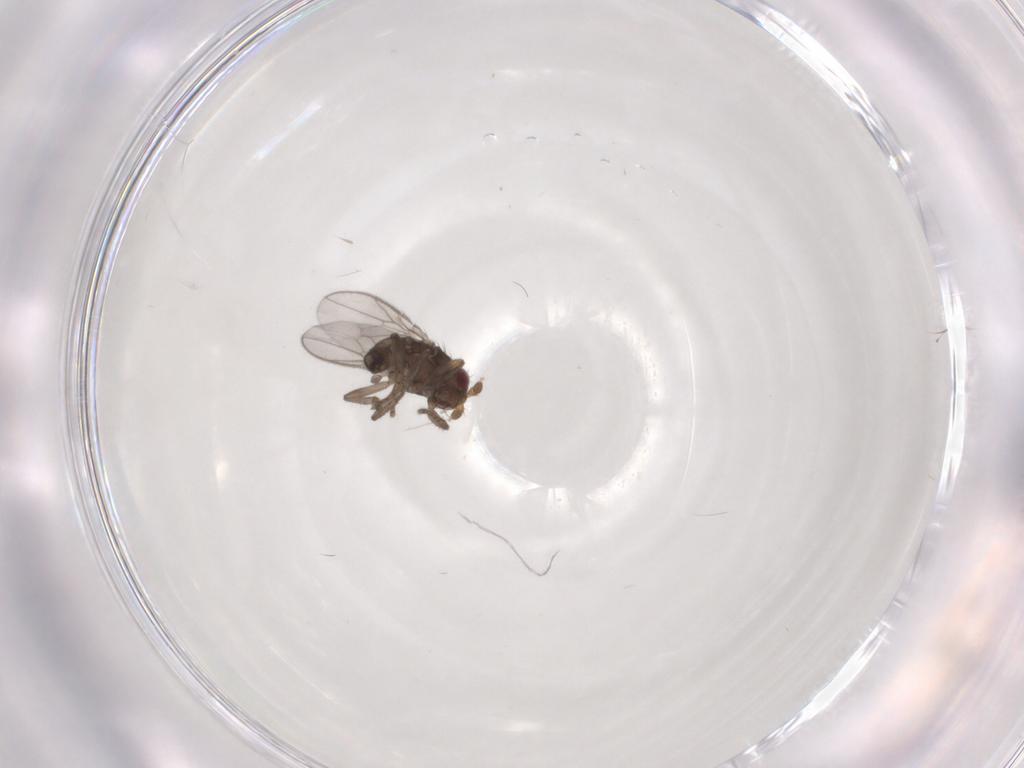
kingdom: Animalia
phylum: Arthropoda
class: Insecta
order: Diptera
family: Sphaeroceridae
